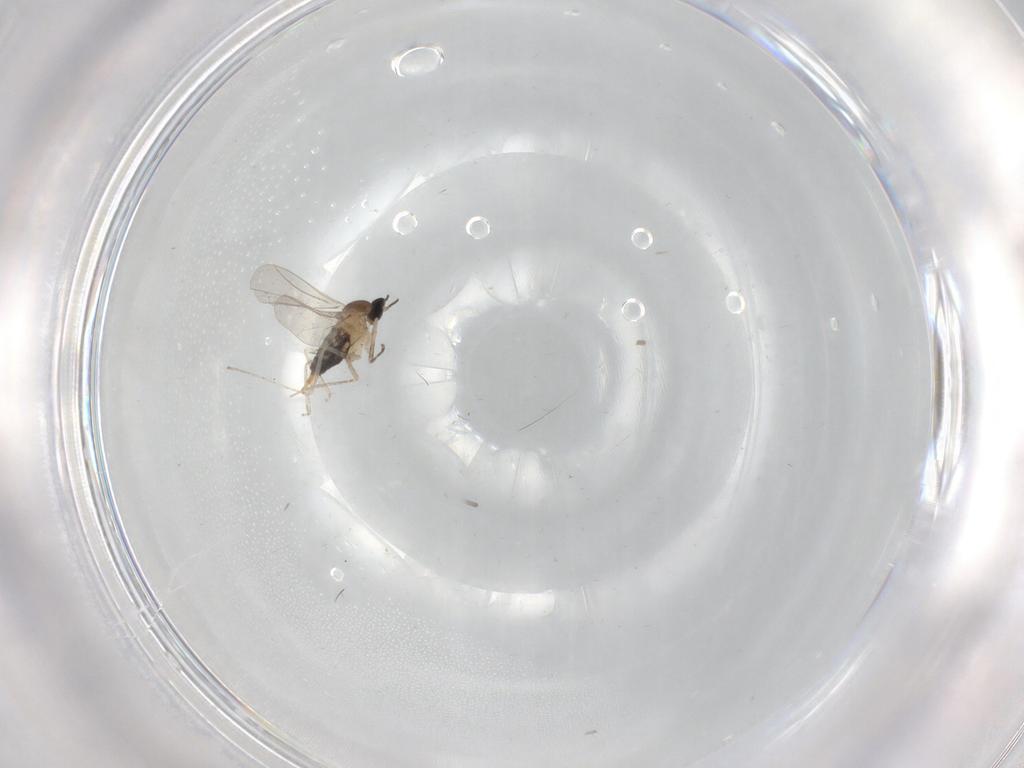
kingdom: Animalia
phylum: Arthropoda
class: Insecta
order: Diptera
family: Cecidomyiidae
